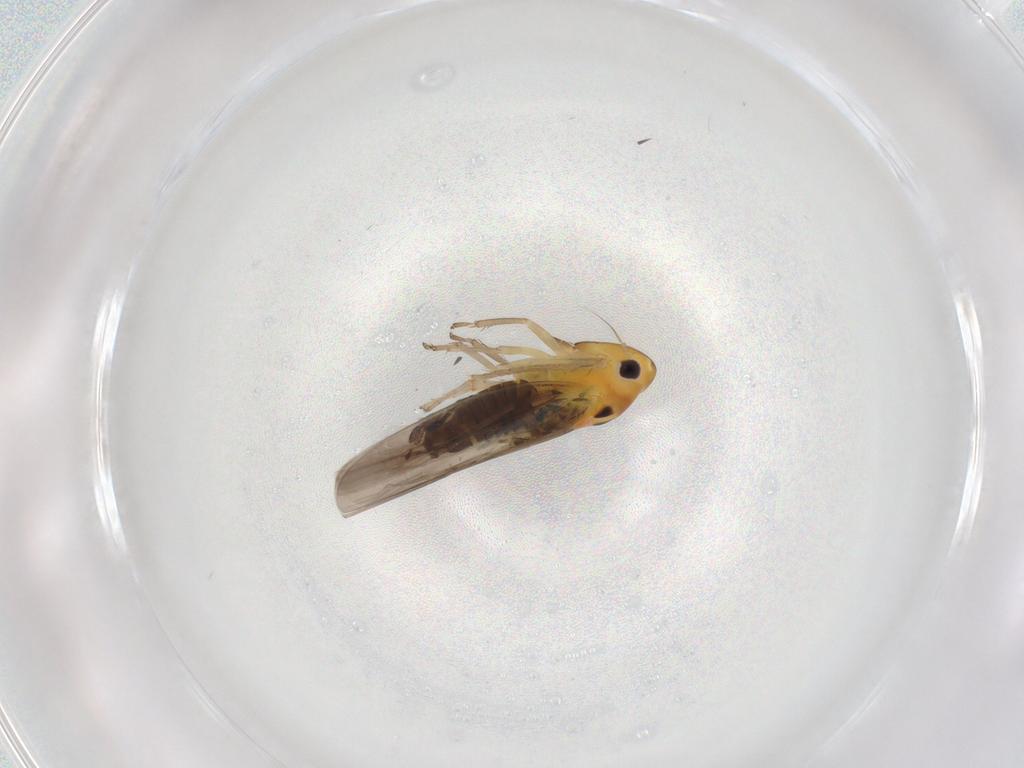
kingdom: Animalia
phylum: Arthropoda
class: Insecta
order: Hemiptera
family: Cicadellidae
